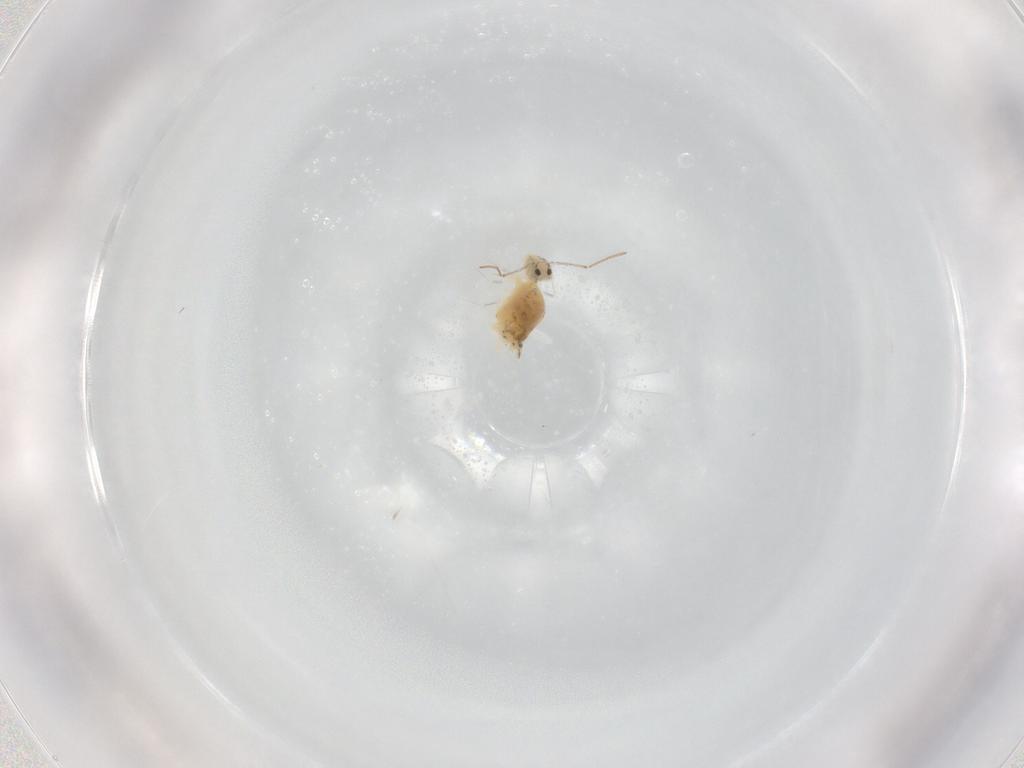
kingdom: Animalia
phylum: Arthropoda
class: Collembola
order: Symphypleona
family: Bourletiellidae
